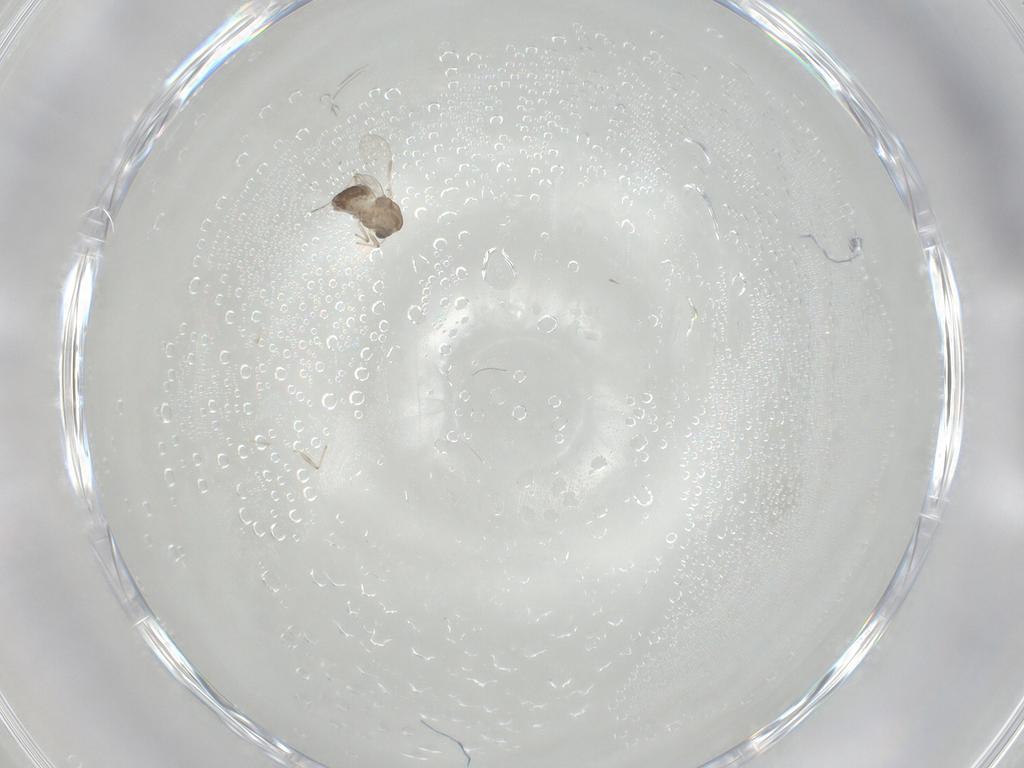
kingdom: Animalia
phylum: Arthropoda
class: Insecta
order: Diptera
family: Chironomidae
